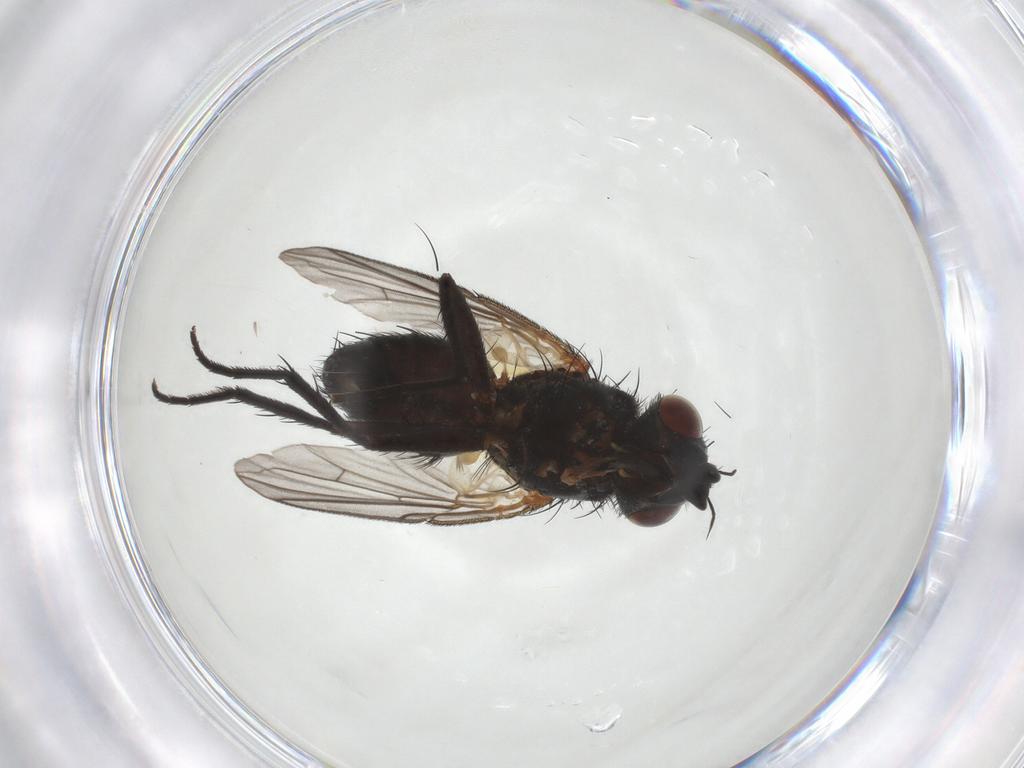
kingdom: Animalia
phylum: Arthropoda
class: Insecta
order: Diptera
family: Tachinidae
